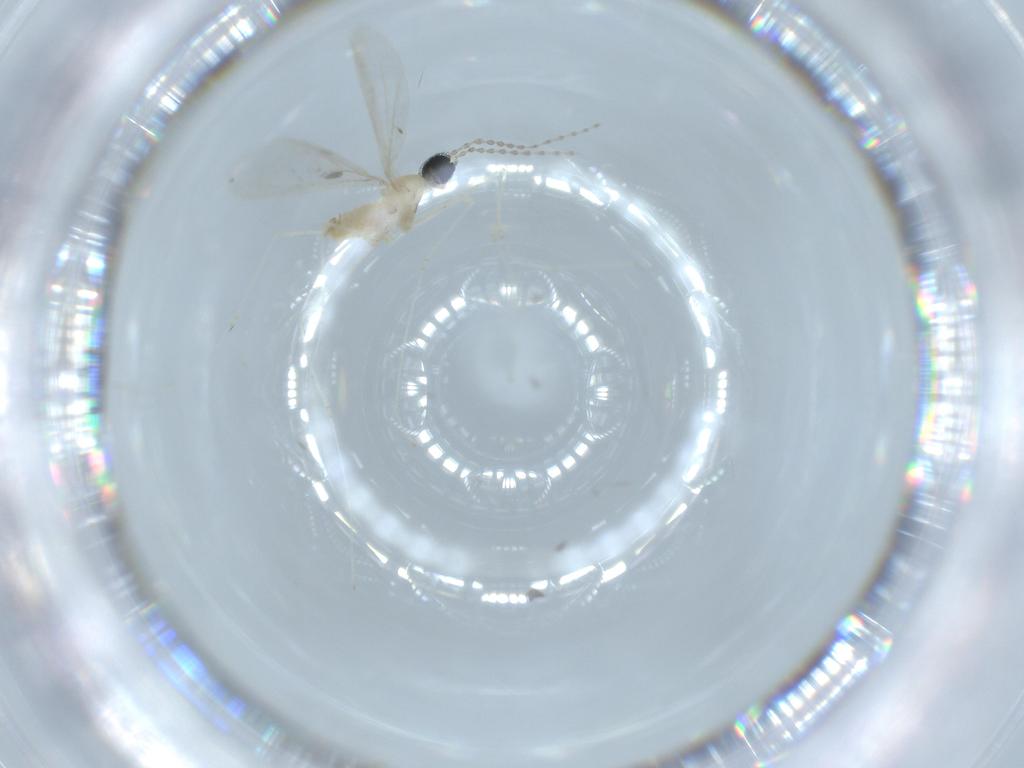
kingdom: Animalia
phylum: Arthropoda
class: Insecta
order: Diptera
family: Cecidomyiidae
